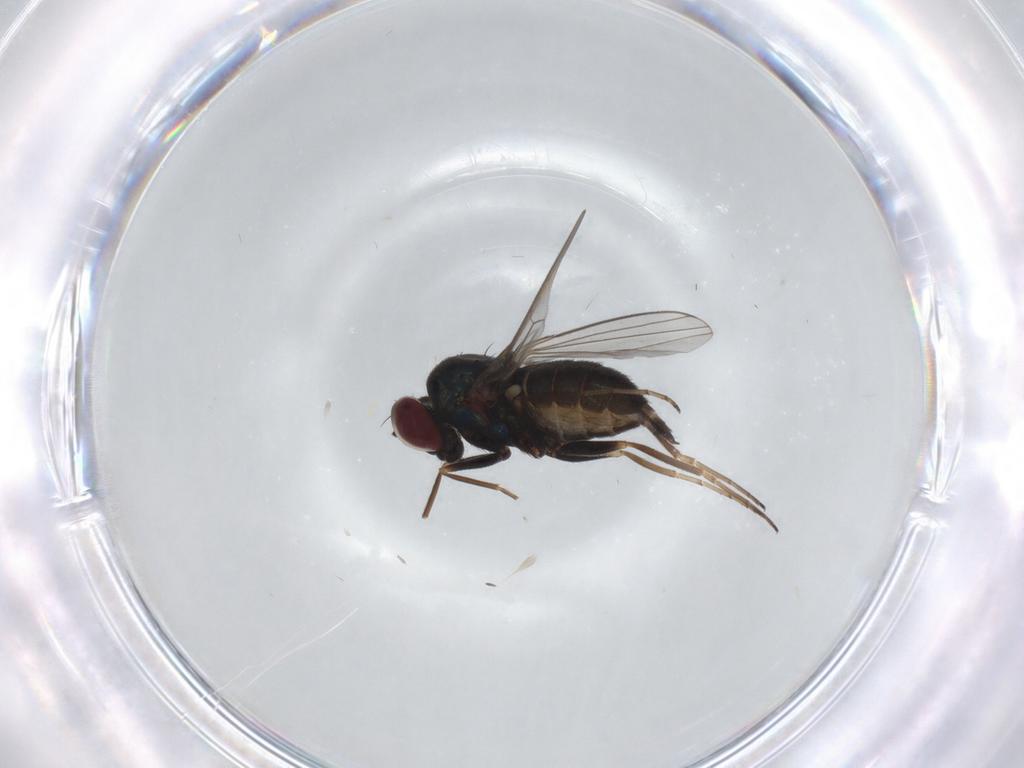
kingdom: Animalia
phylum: Arthropoda
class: Insecta
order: Diptera
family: Dolichopodidae
